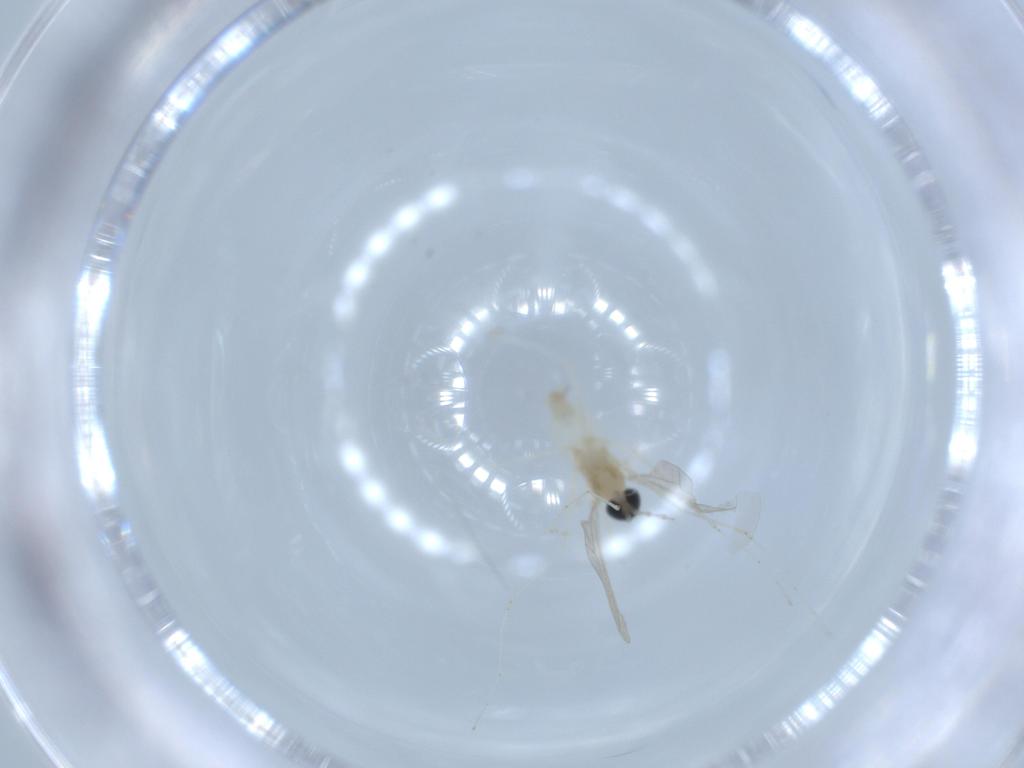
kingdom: Animalia
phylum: Arthropoda
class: Insecta
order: Diptera
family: Cecidomyiidae
